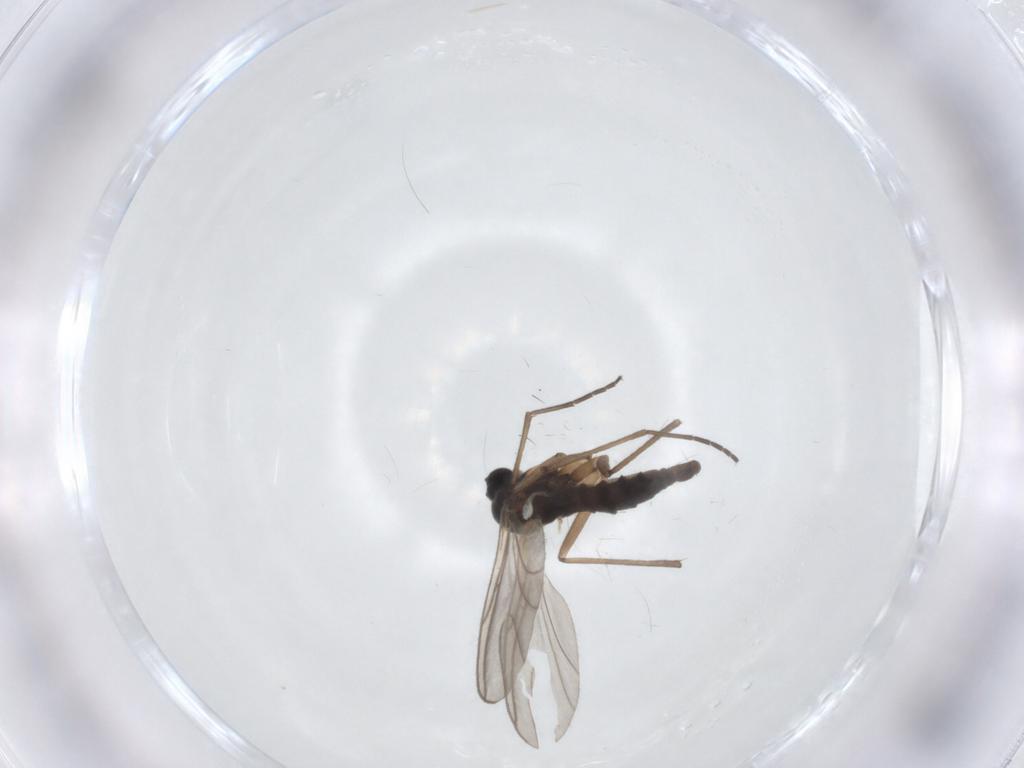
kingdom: Animalia
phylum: Arthropoda
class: Insecta
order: Diptera
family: Sciaridae
